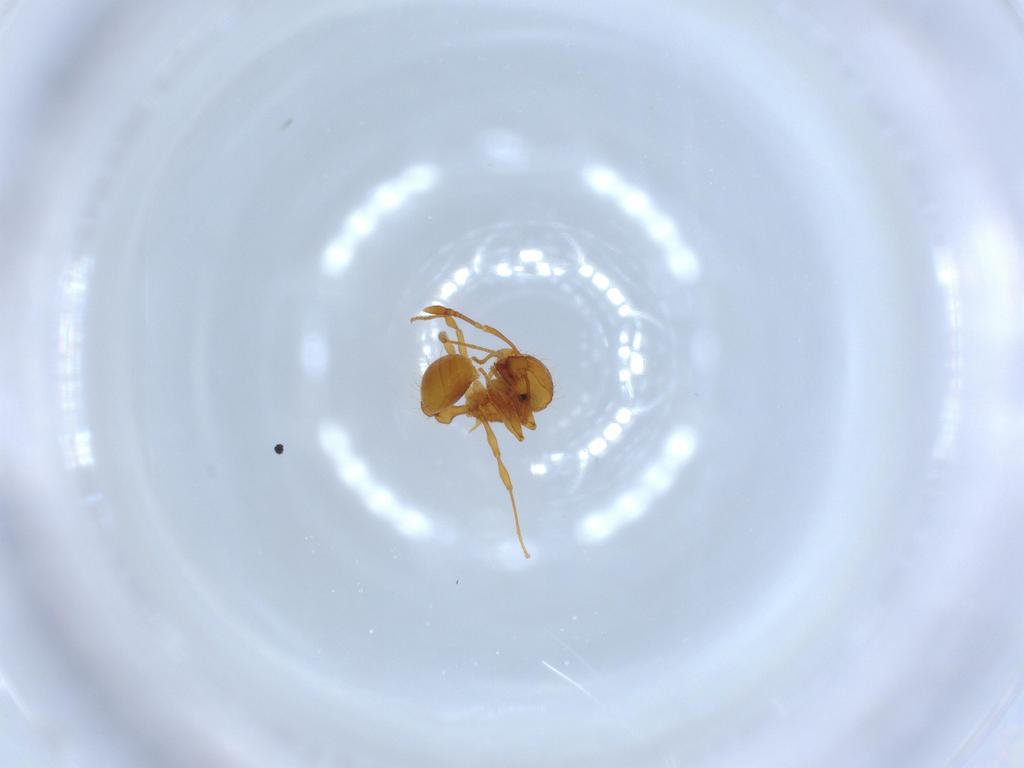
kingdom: Animalia
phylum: Arthropoda
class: Insecta
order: Hymenoptera
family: Formicidae
